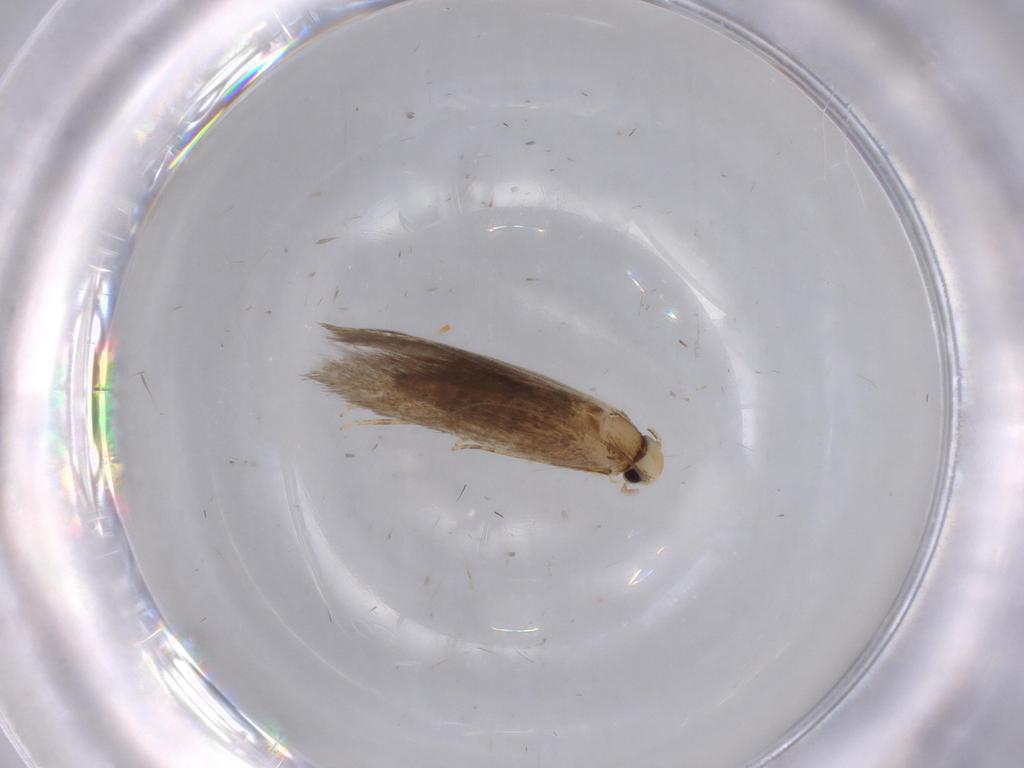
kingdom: Animalia
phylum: Arthropoda
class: Insecta
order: Lepidoptera
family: Tineidae
